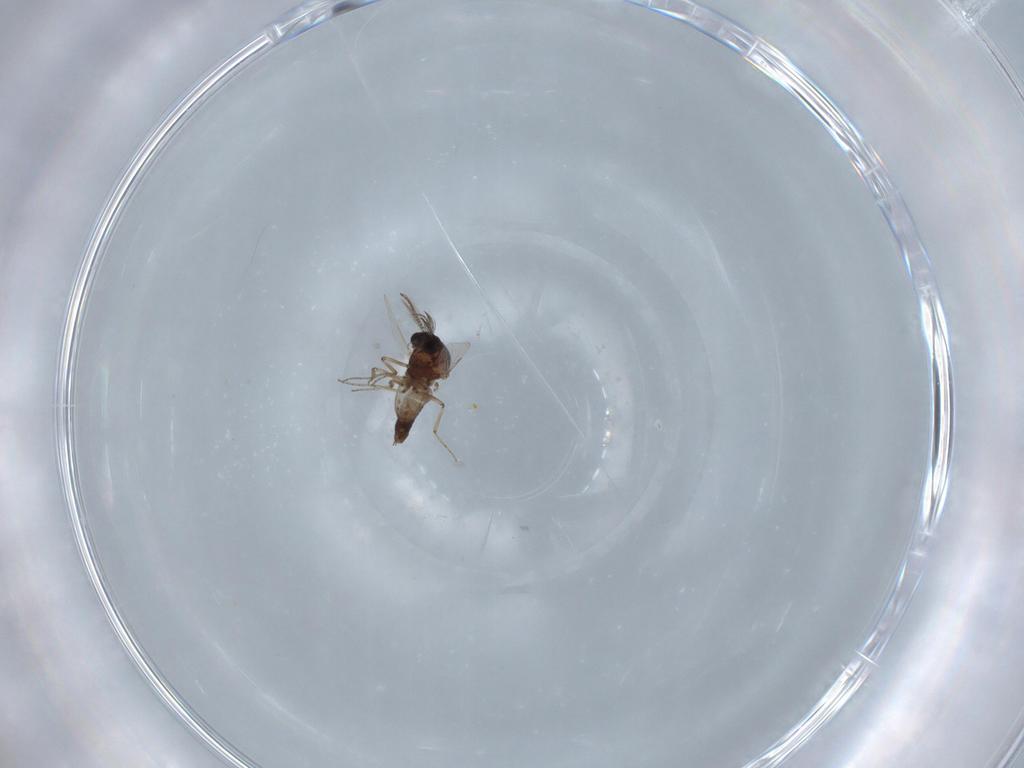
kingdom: Animalia
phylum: Arthropoda
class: Insecta
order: Diptera
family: Ceratopogonidae
